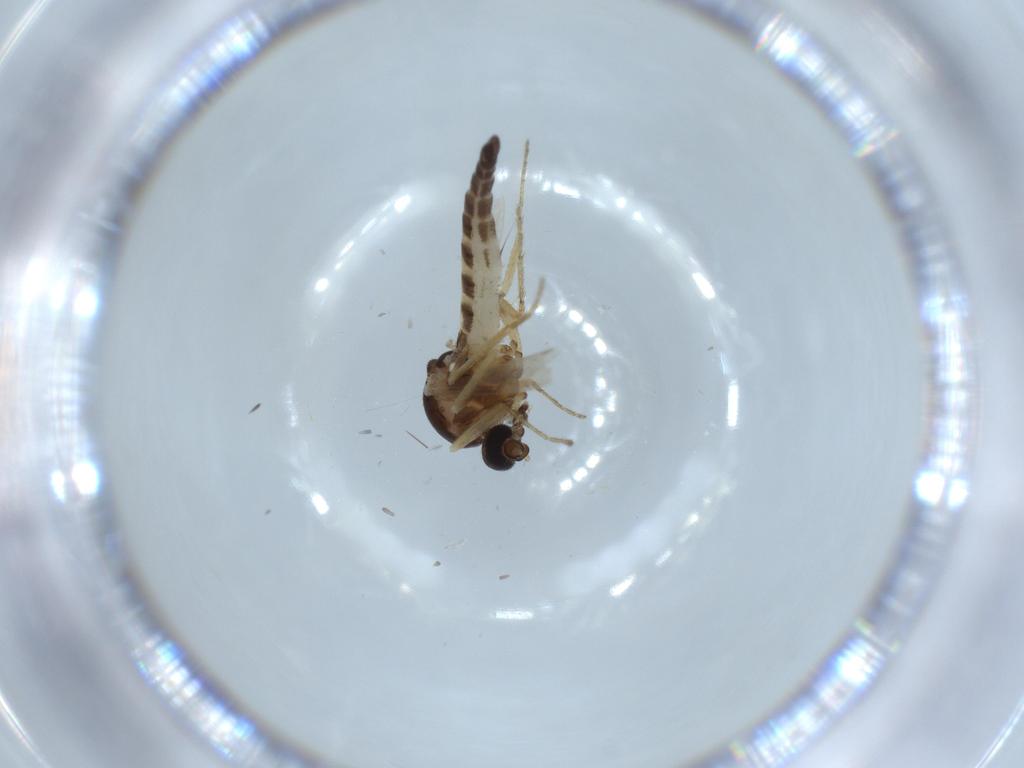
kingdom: Animalia
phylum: Arthropoda
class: Insecta
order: Diptera
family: Ceratopogonidae
